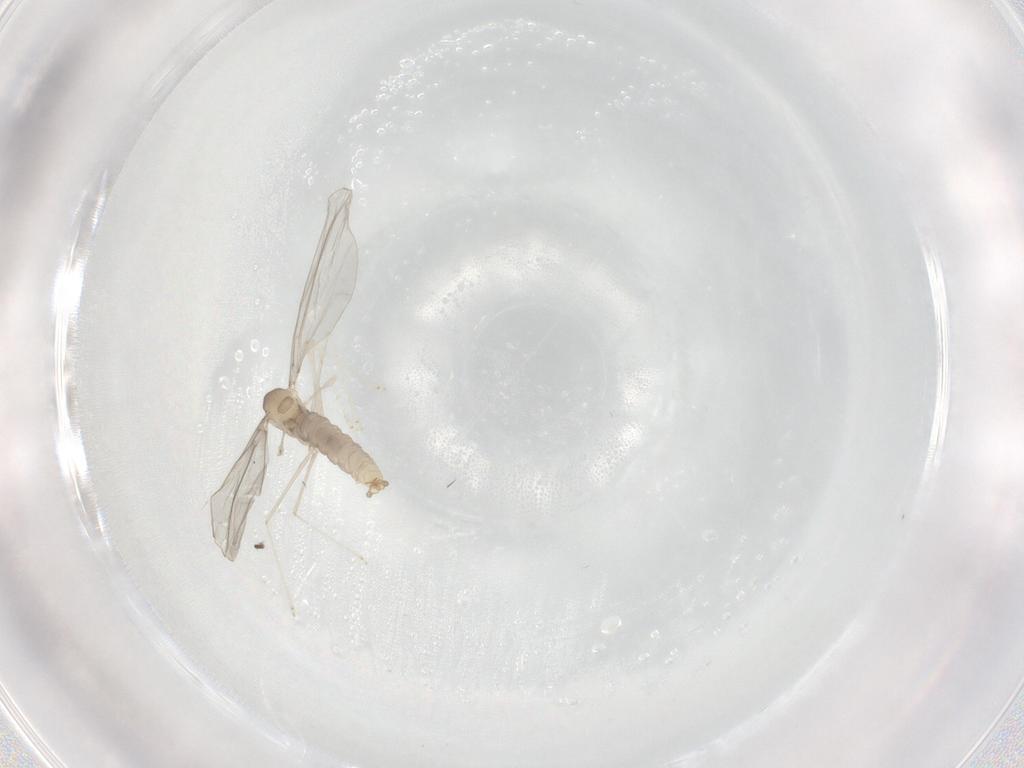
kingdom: Animalia
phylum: Arthropoda
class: Insecta
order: Diptera
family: Cecidomyiidae
